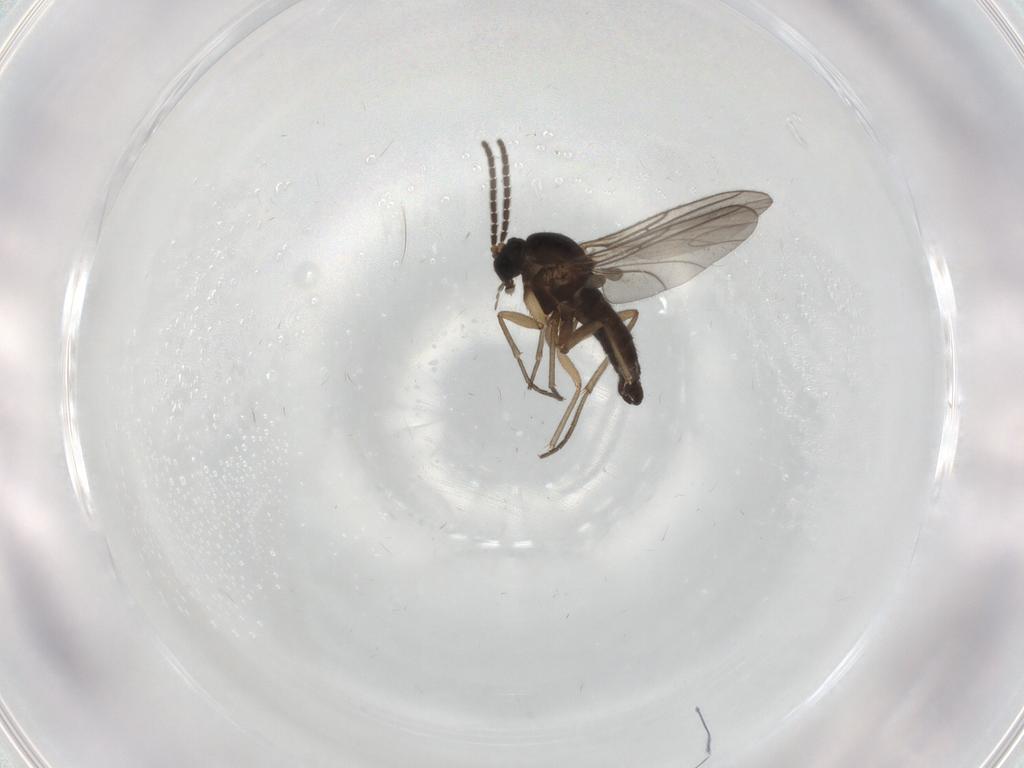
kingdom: Animalia
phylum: Arthropoda
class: Insecta
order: Diptera
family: Sciaridae
